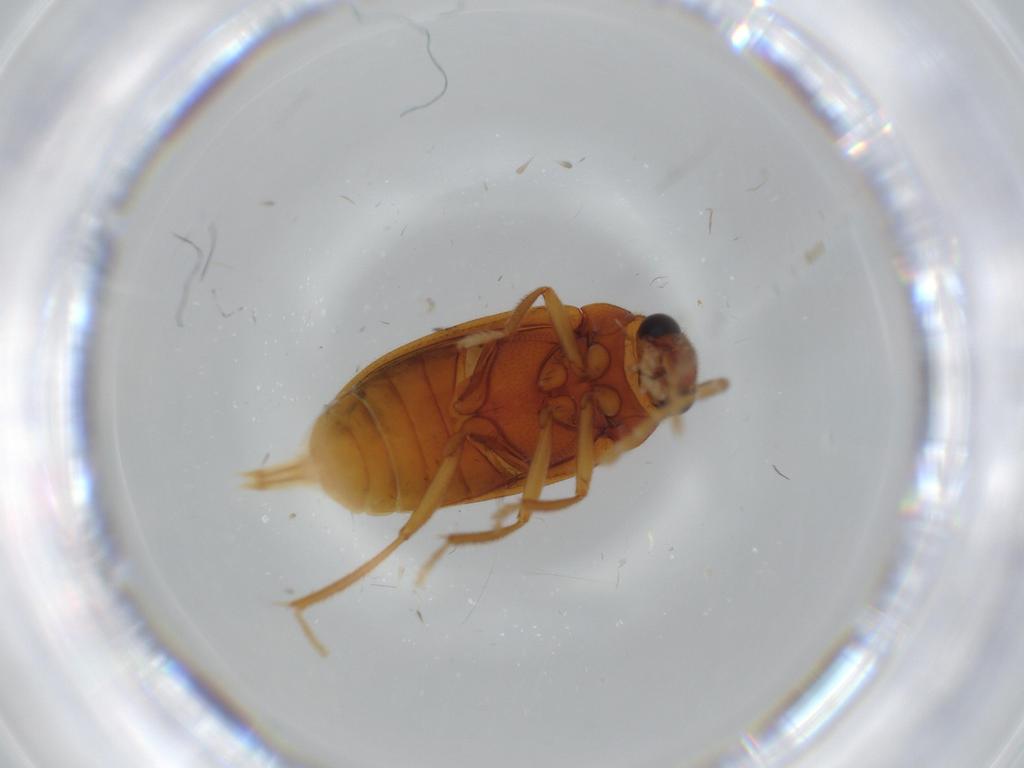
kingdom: Animalia
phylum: Arthropoda
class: Insecta
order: Coleoptera
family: Ptilodactylidae
